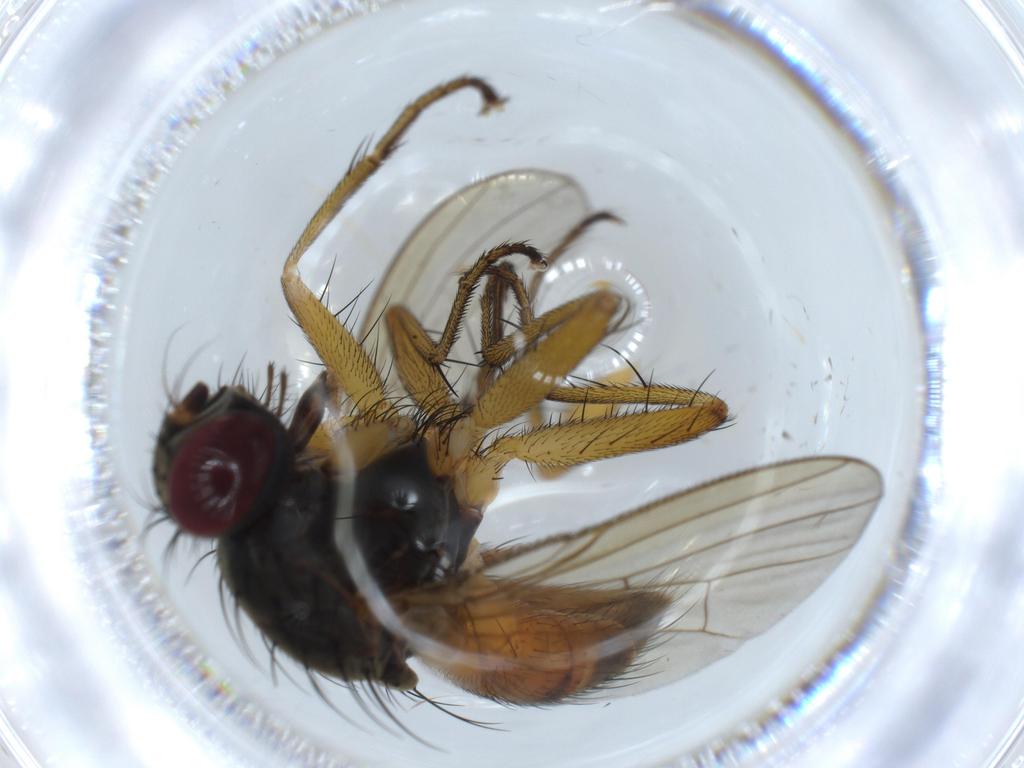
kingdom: Animalia
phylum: Arthropoda
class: Insecta
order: Diptera
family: Muscidae
